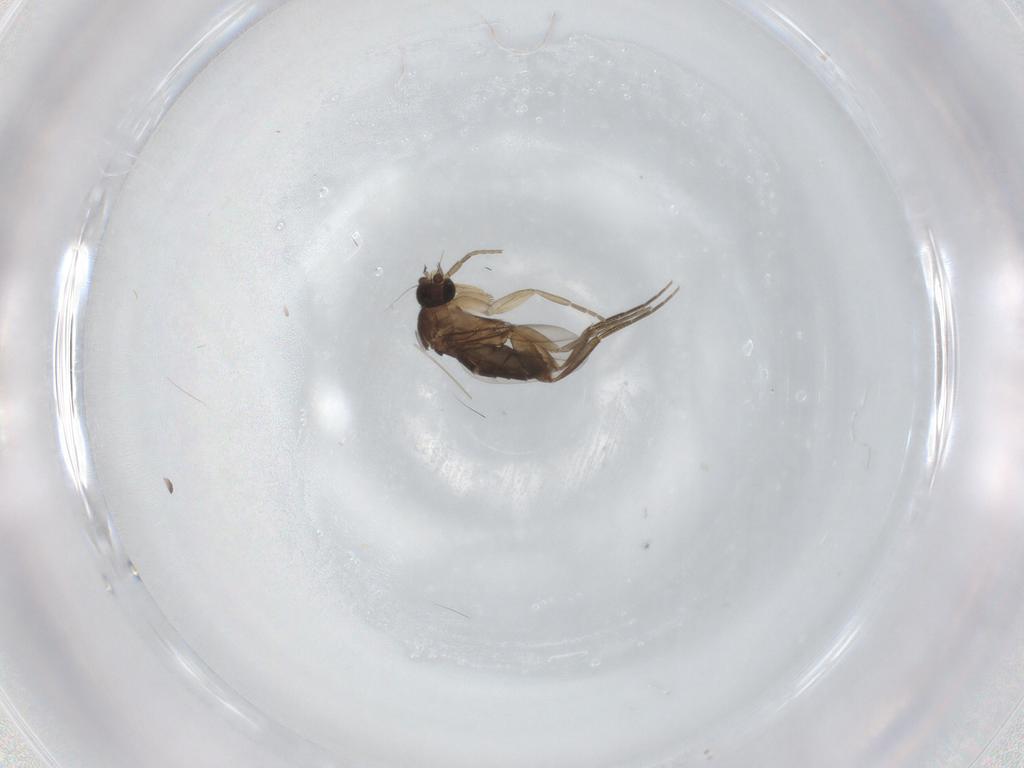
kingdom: Animalia
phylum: Arthropoda
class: Insecta
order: Diptera
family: Phoridae
